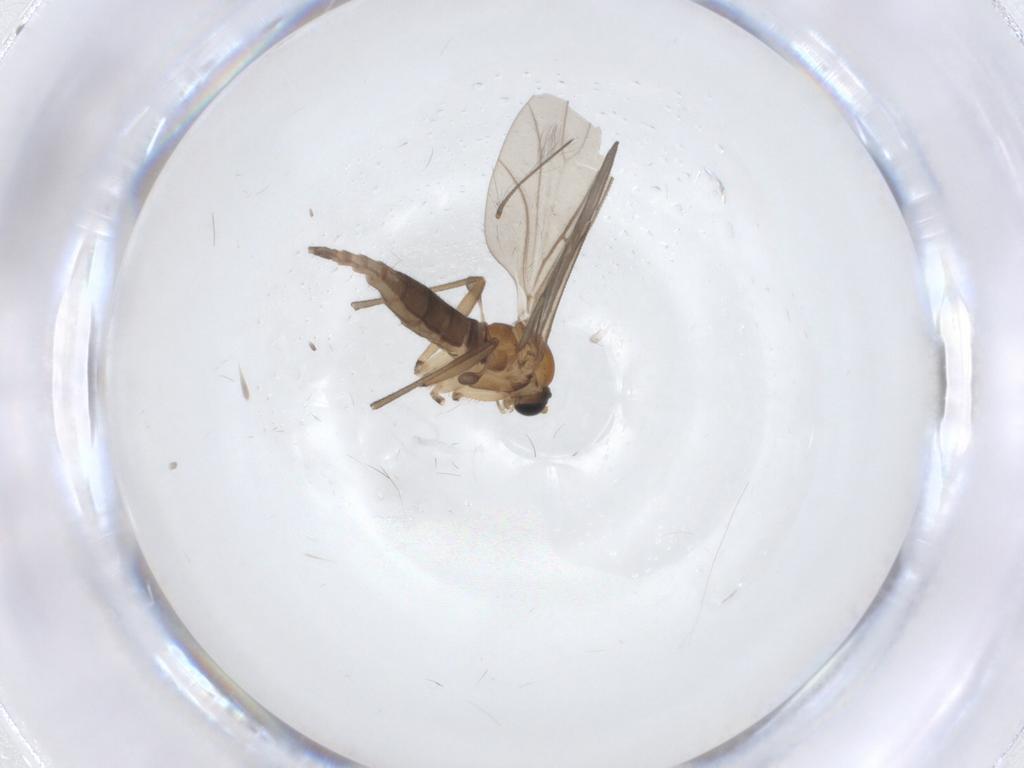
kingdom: Animalia
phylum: Arthropoda
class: Insecta
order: Diptera
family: Sciaridae
